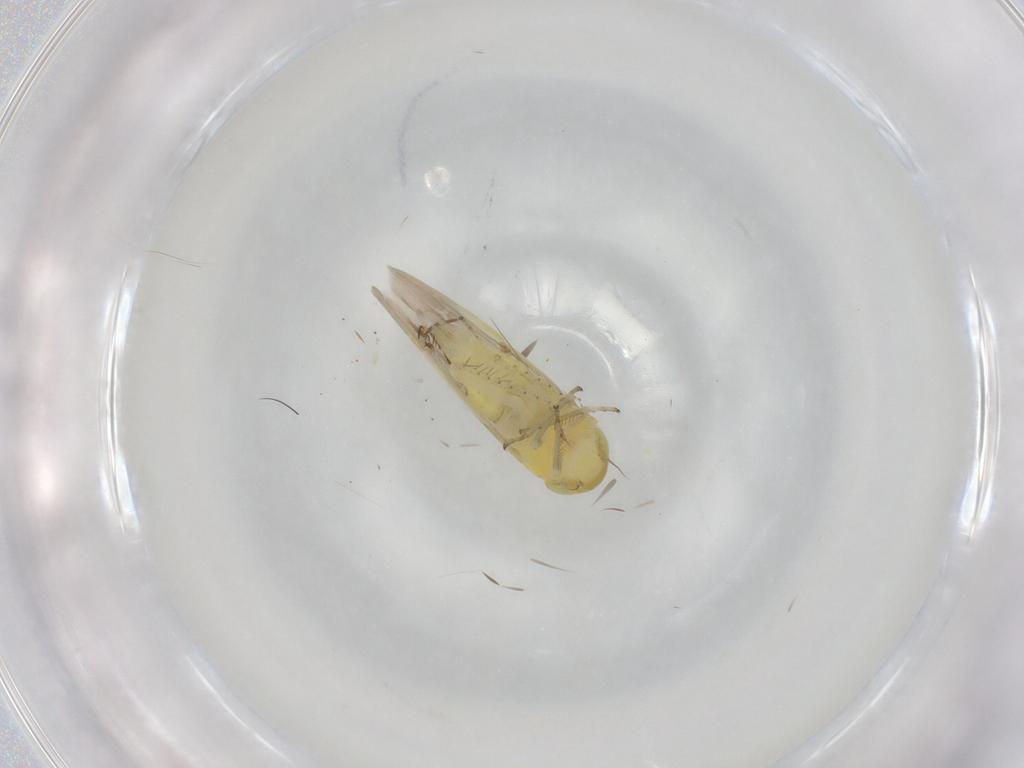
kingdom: Animalia
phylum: Arthropoda
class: Insecta
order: Hemiptera
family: Cicadellidae
